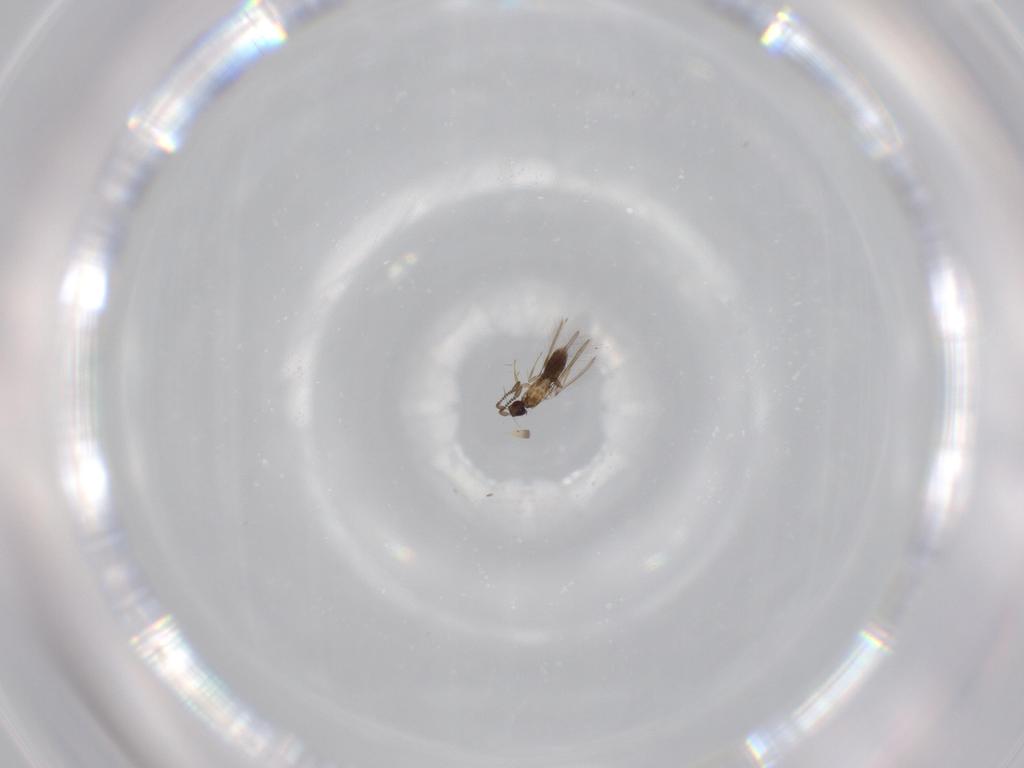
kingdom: Animalia
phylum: Arthropoda
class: Insecta
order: Hymenoptera
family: Mymaridae
